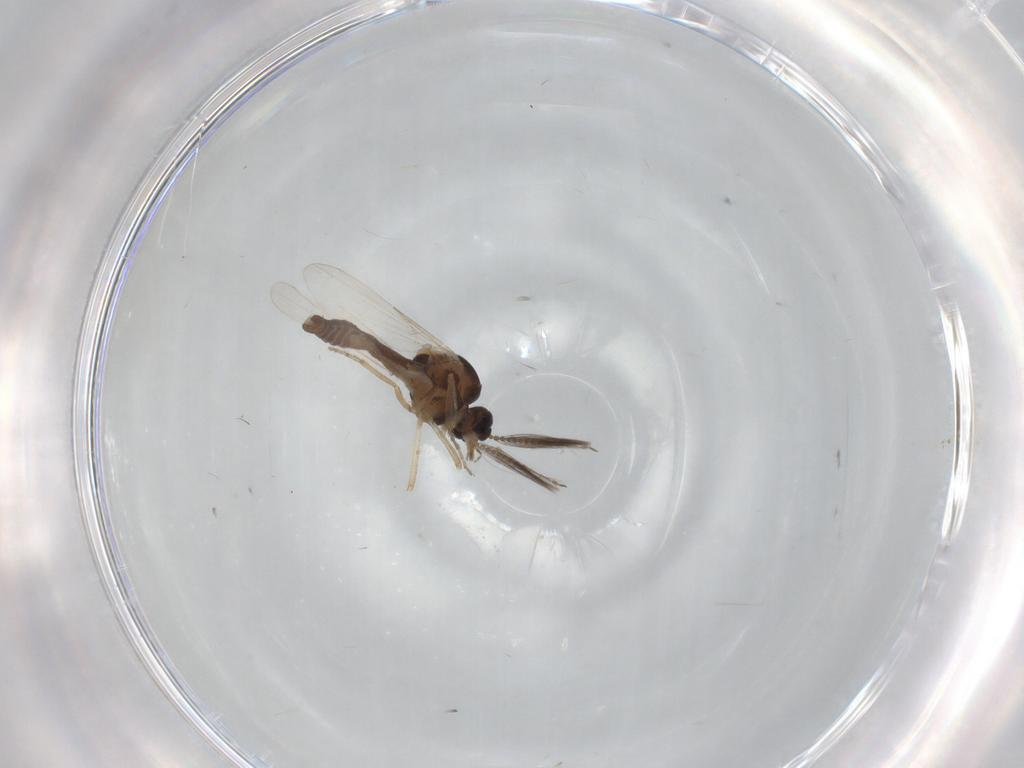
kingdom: Animalia
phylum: Arthropoda
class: Insecta
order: Diptera
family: Ceratopogonidae
